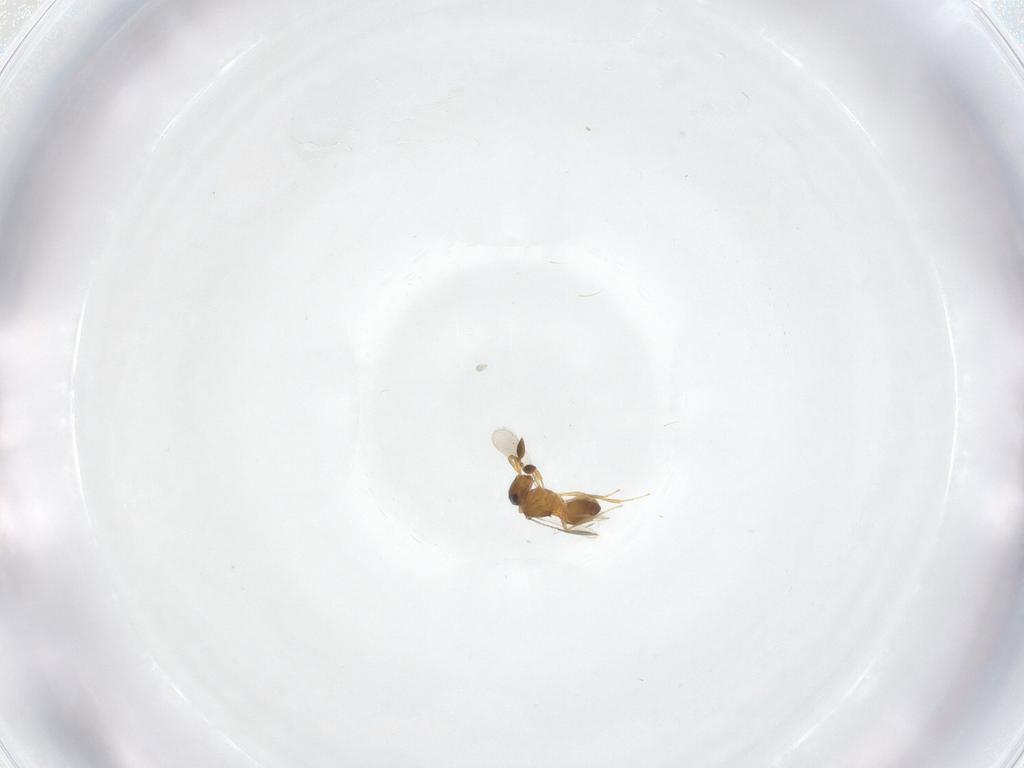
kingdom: Animalia
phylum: Arthropoda
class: Insecta
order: Hymenoptera
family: Scelionidae
